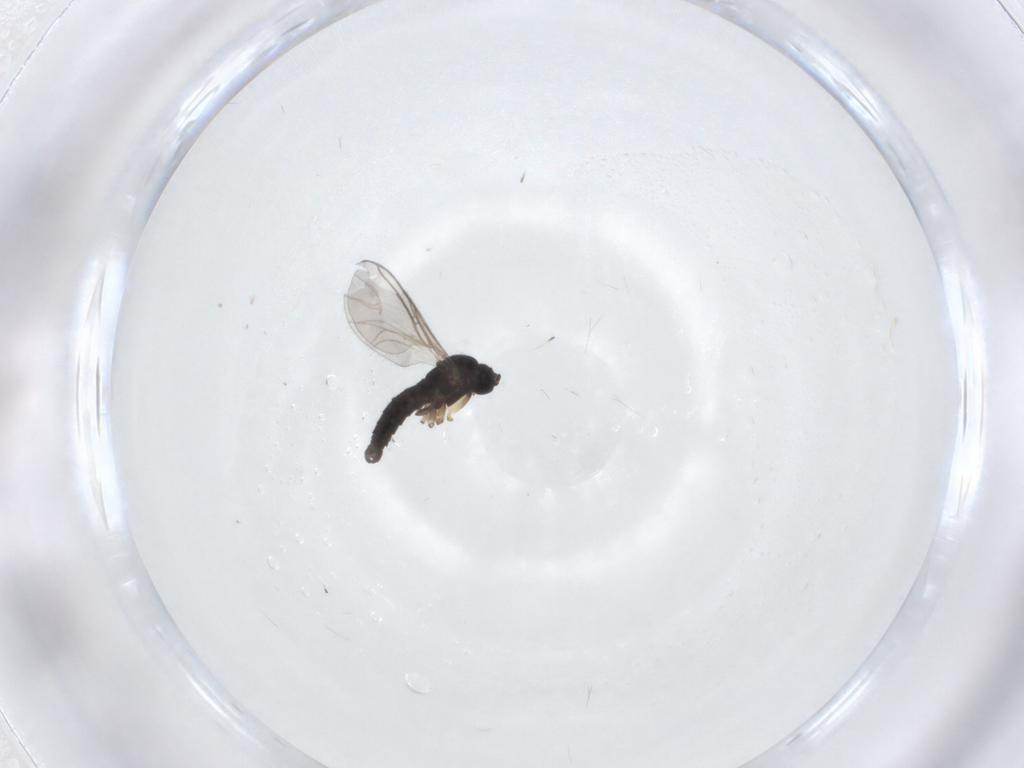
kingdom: Animalia
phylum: Arthropoda
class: Insecta
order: Diptera
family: Sciaridae
